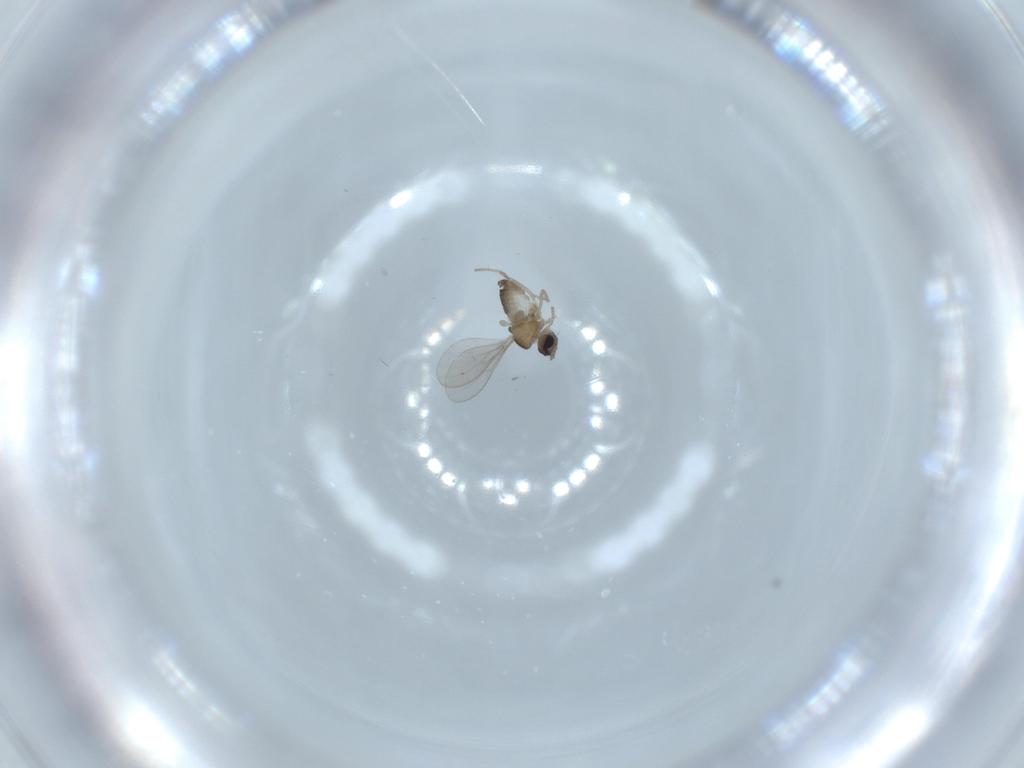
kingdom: Animalia
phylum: Arthropoda
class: Insecta
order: Diptera
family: Cecidomyiidae
